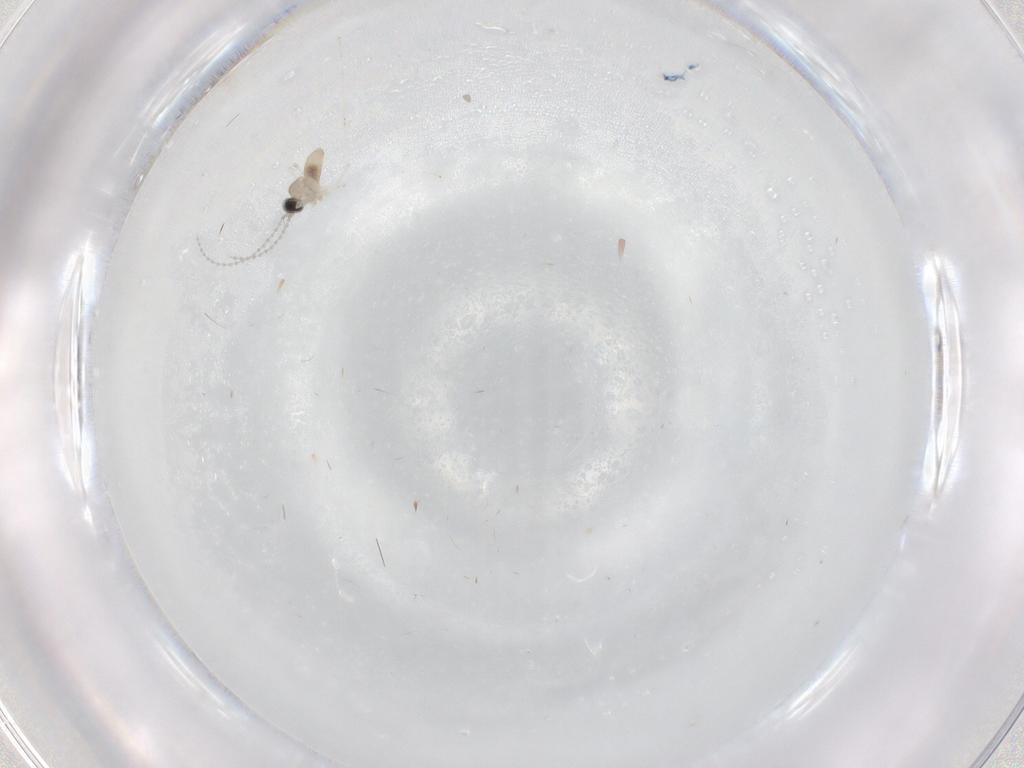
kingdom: Animalia
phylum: Arthropoda
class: Insecta
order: Diptera
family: Cecidomyiidae
